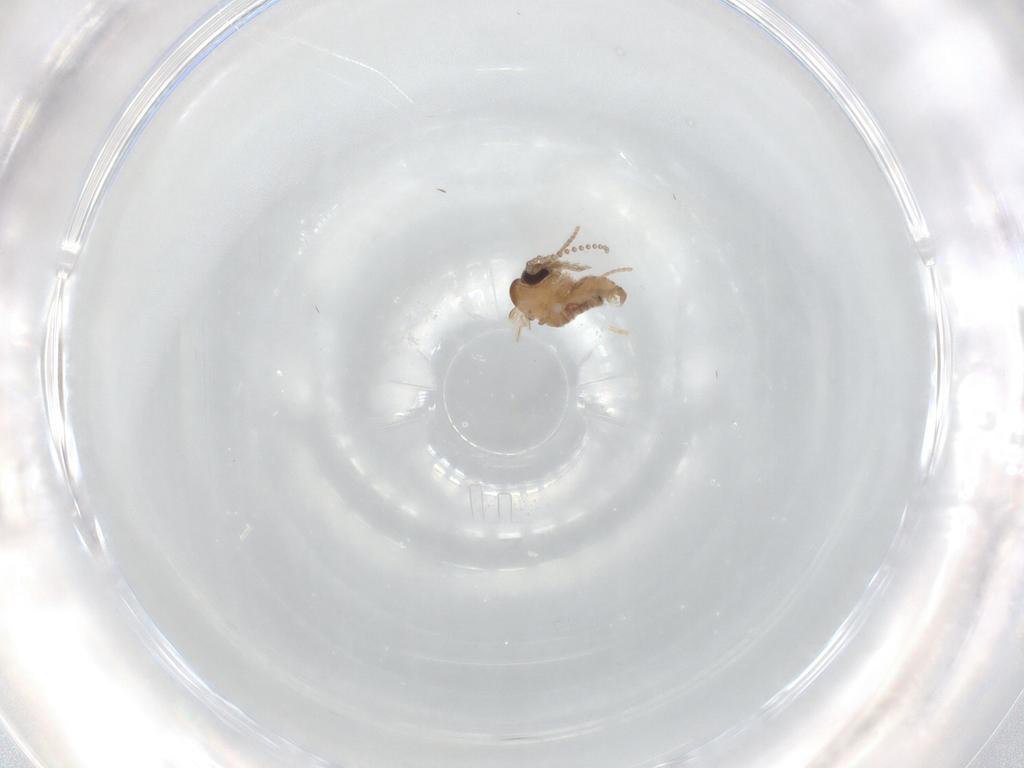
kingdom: Animalia
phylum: Arthropoda
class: Insecta
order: Diptera
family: Psychodidae
